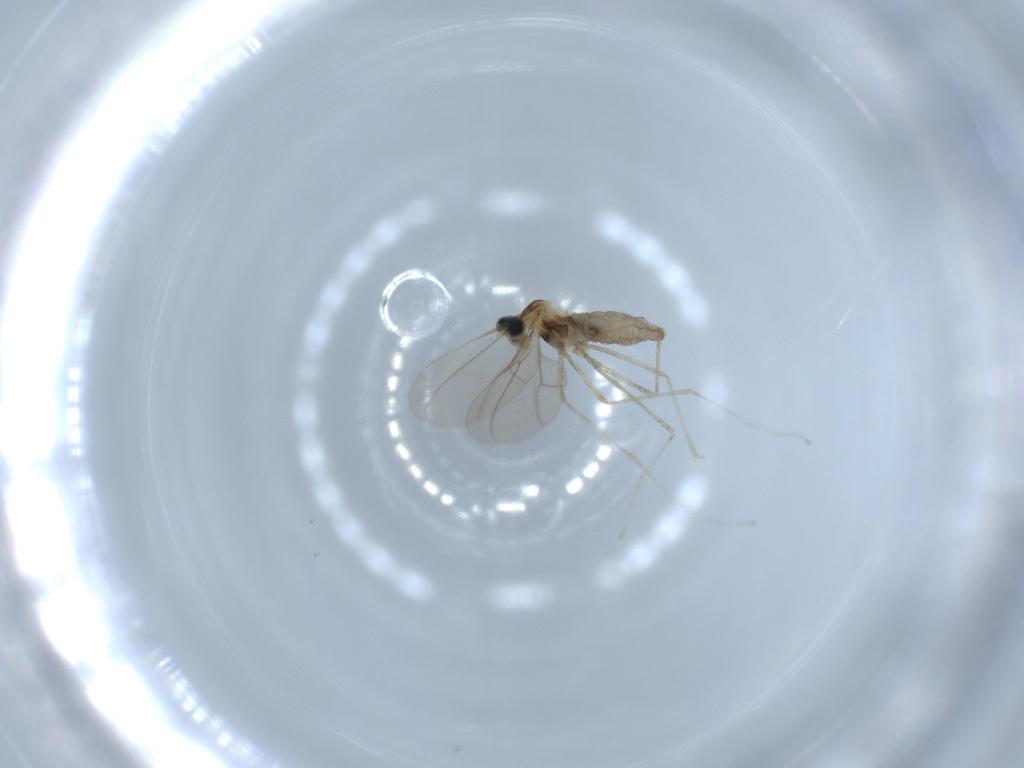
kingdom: Animalia
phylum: Arthropoda
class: Insecta
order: Diptera
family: Cecidomyiidae
